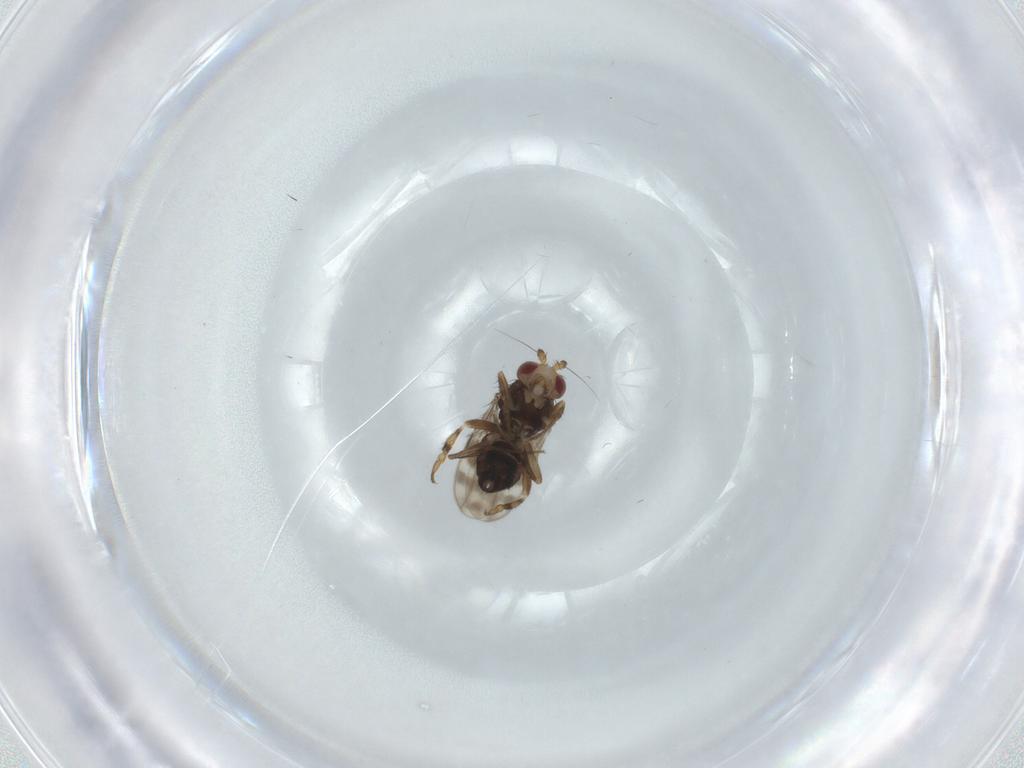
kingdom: Animalia
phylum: Arthropoda
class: Insecta
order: Diptera
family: Sphaeroceridae
